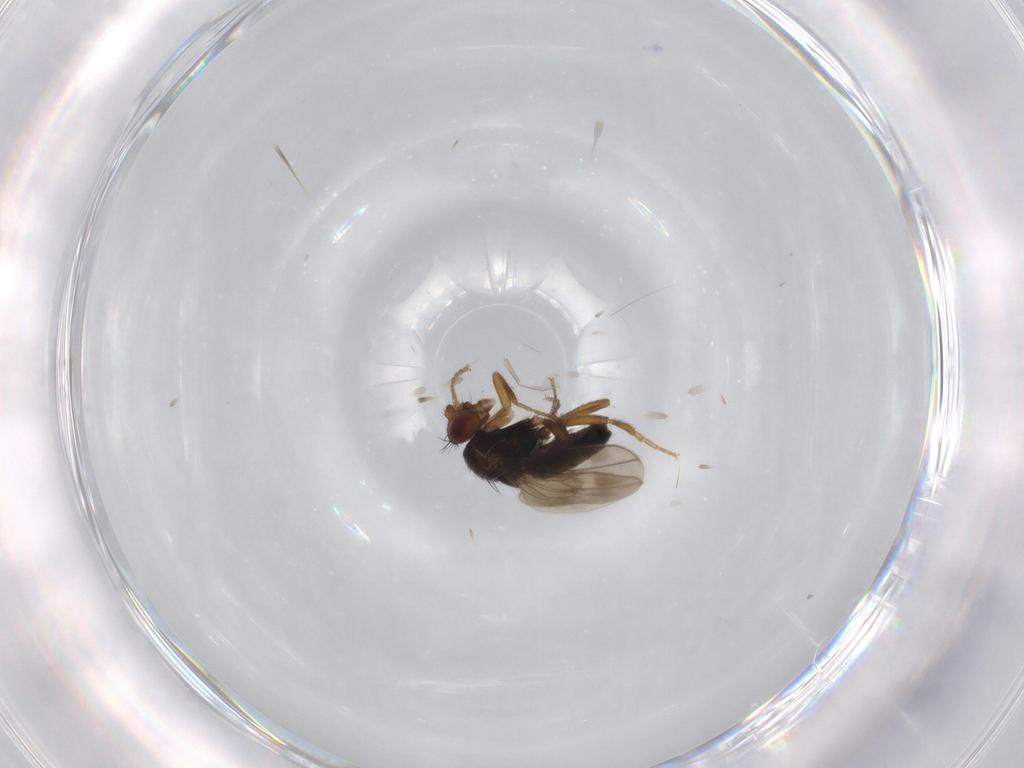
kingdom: Animalia
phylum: Arthropoda
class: Insecta
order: Diptera
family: Sphaeroceridae
